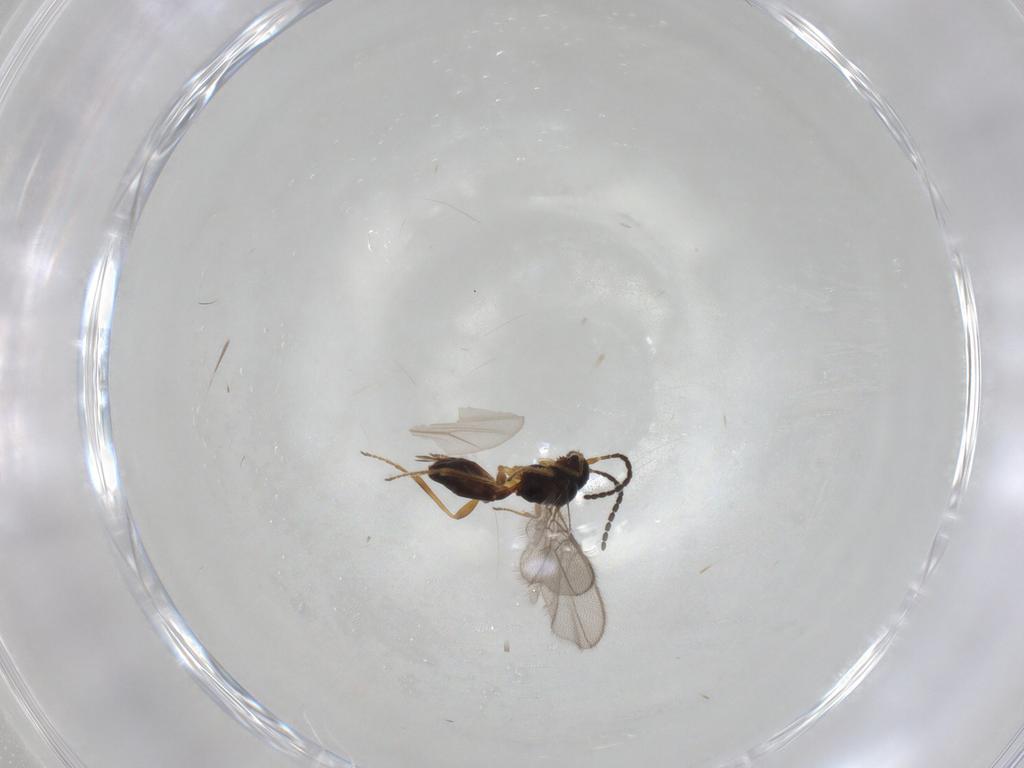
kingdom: Animalia
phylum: Arthropoda
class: Insecta
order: Hymenoptera
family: Braconidae
